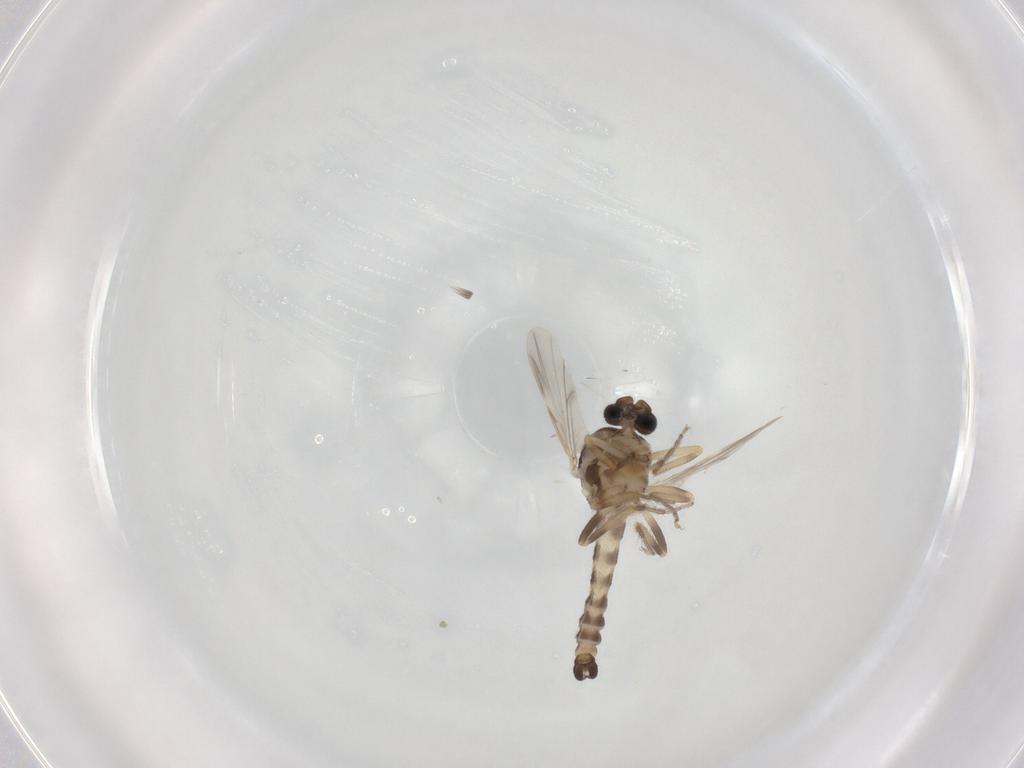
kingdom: Animalia
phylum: Arthropoda
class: Insecta
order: Diptera
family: Ceratopogonidae
